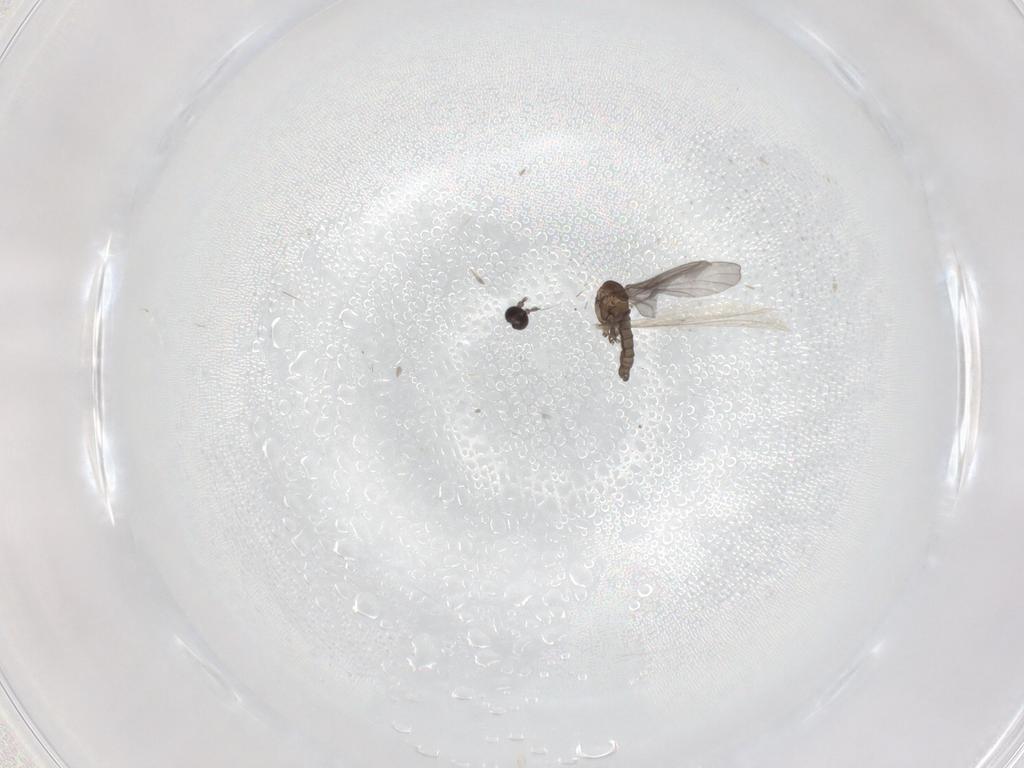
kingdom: Animalia
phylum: Arthropoda
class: Insecta
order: Diptera
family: Sciaridae
